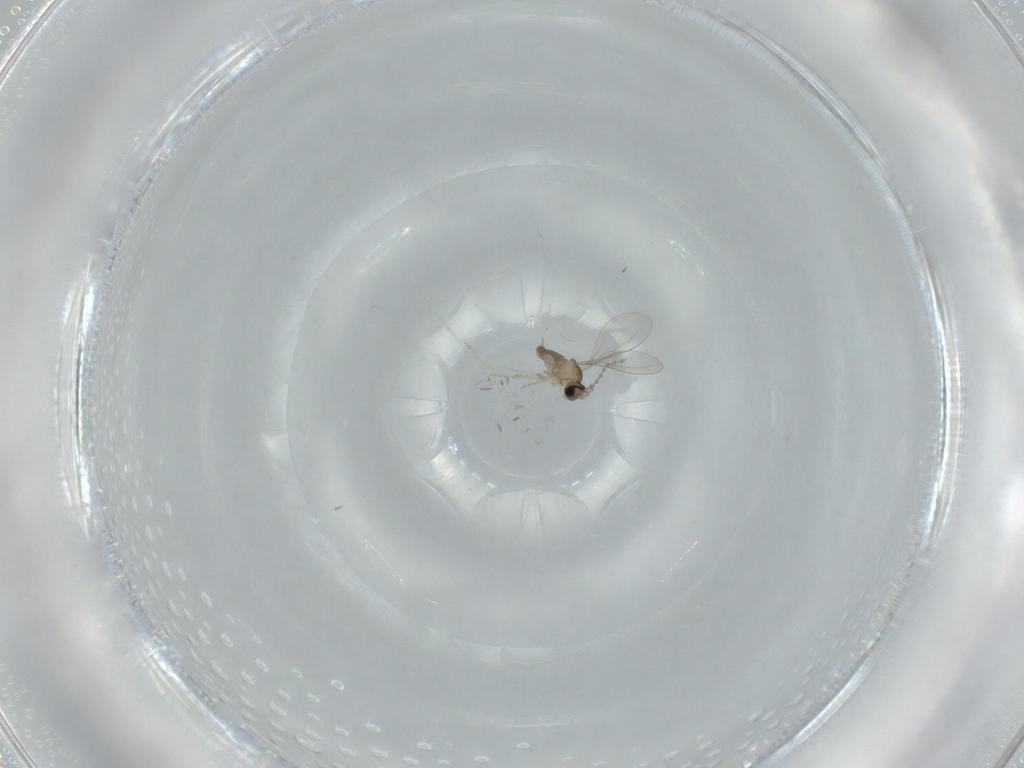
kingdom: Animalia
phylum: Arthropoda
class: Insecta
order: Diptera
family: Cecidomyiidae
